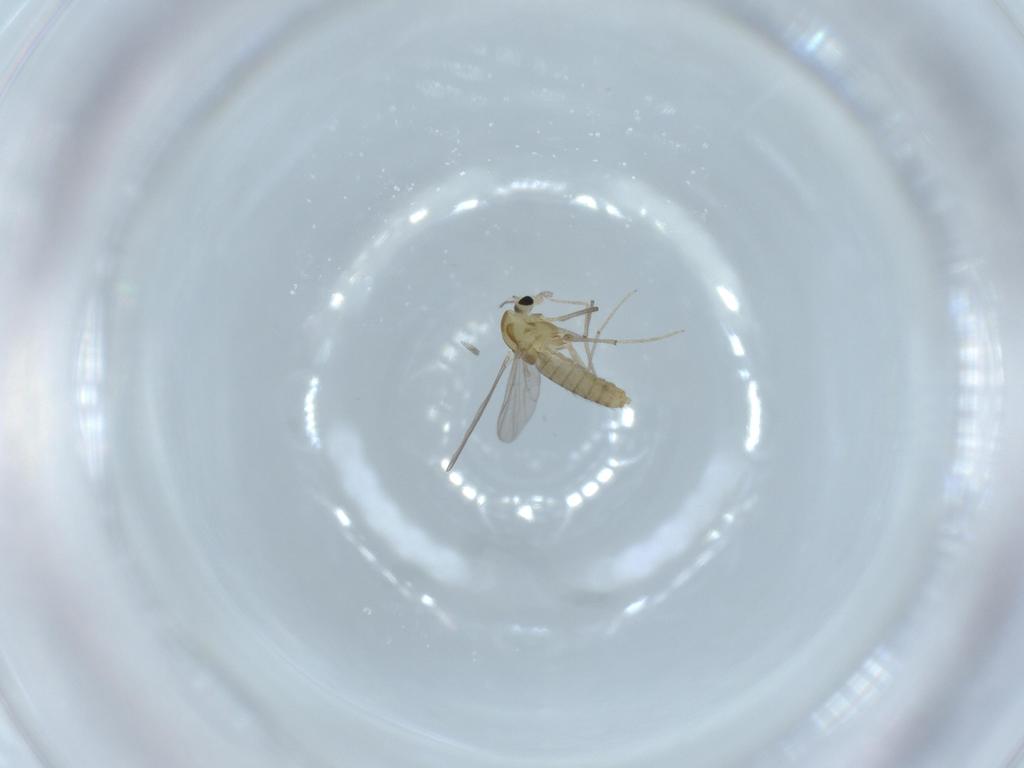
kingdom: Animalia
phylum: Arthropoda
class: Insecta
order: Diptera
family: Chironomidae
